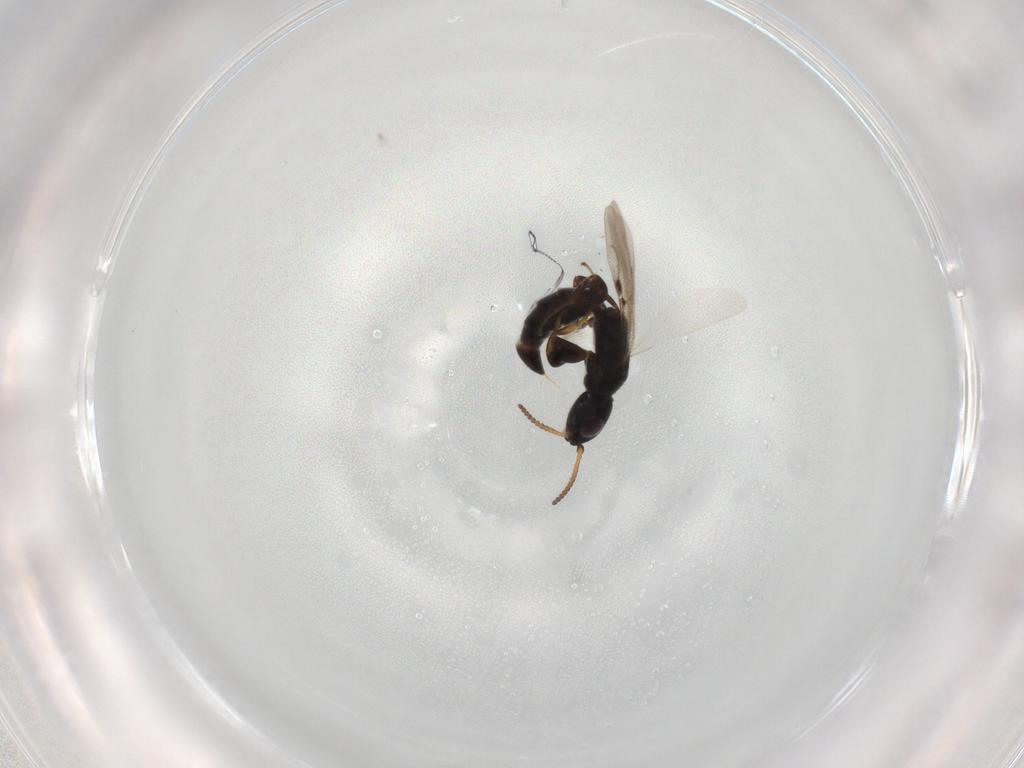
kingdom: Animalia
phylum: Arthropoda
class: Insecta
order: Hymenoptera
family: Bethylidae
